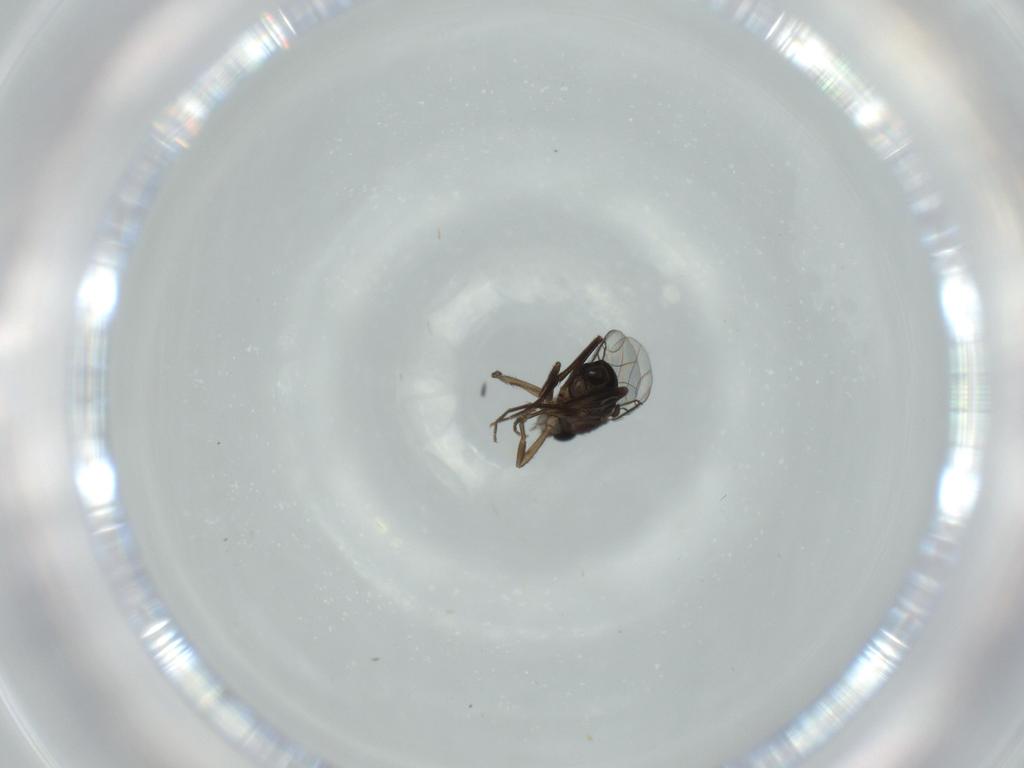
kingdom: Animalia
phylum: Arthropoda
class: Insecta
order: Diptera
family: Phoridae
